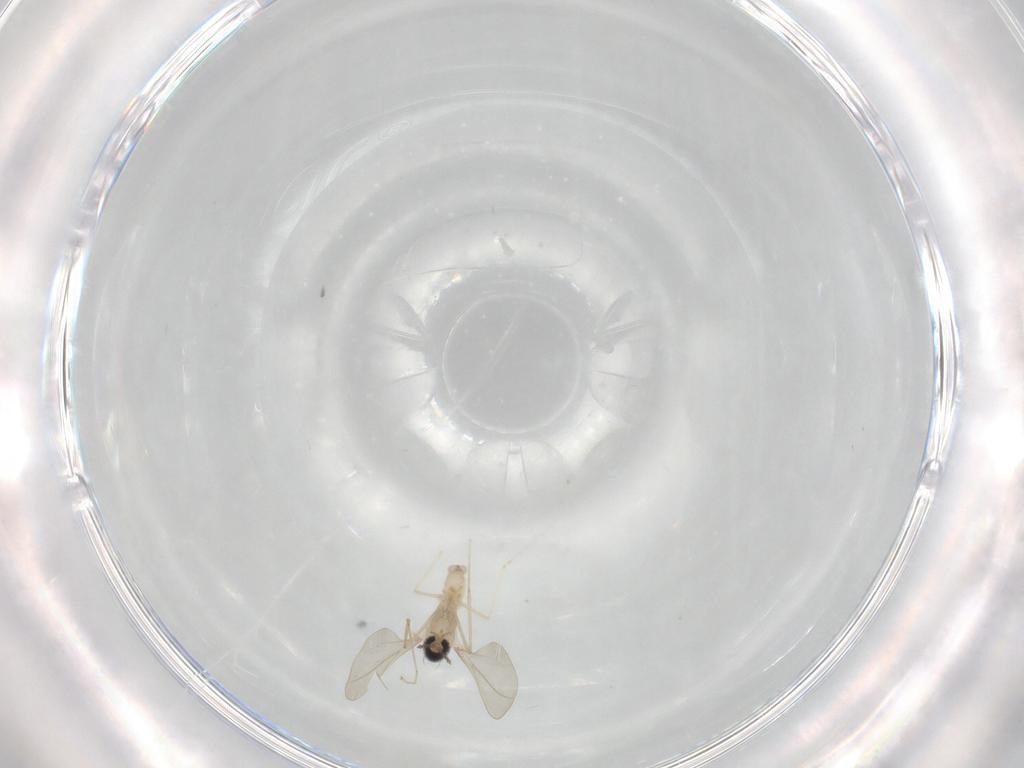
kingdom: Animalia
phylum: Arthropoda
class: Insecta
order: Diptera
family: Cecidomyiidae
